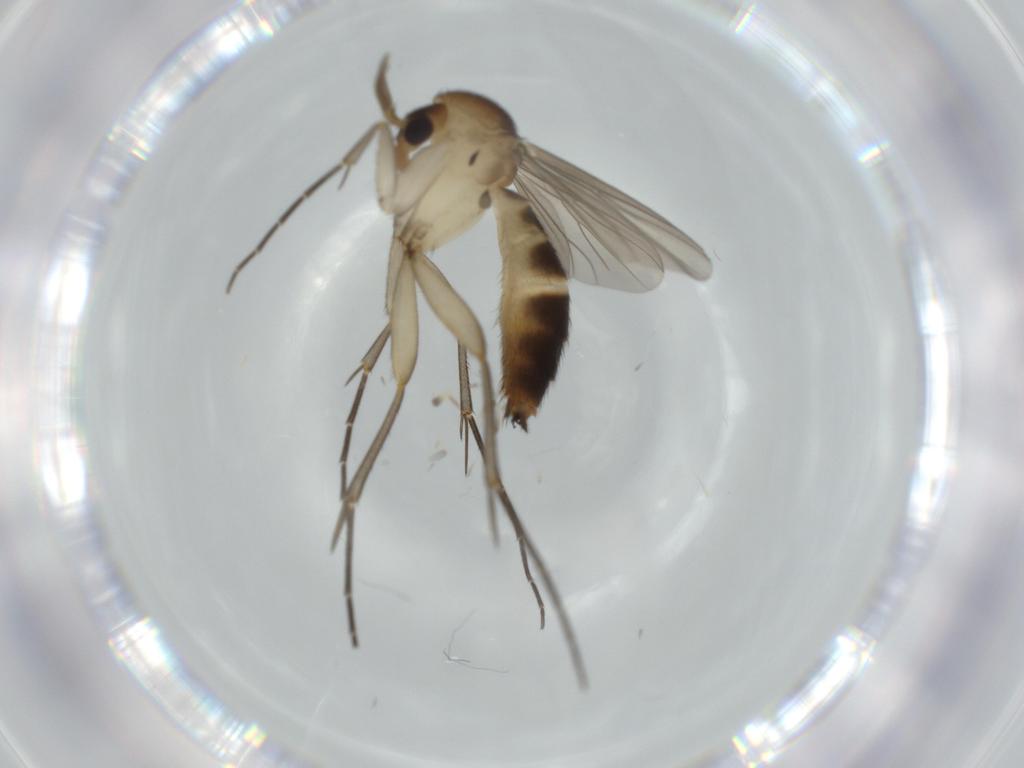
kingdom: Animalia
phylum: Arthropoda
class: Insecta
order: Diptera
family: Mycetophilidae
